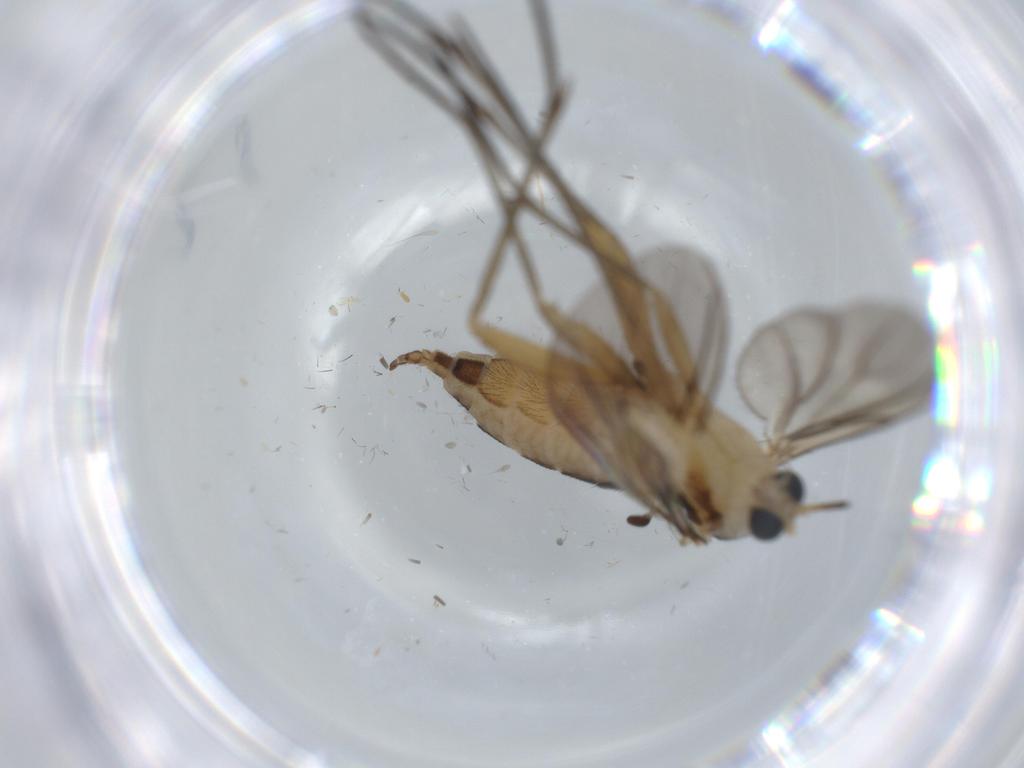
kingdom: Animalia
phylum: Arthropoda
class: Insecta
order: Diptera
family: Sciaridae
